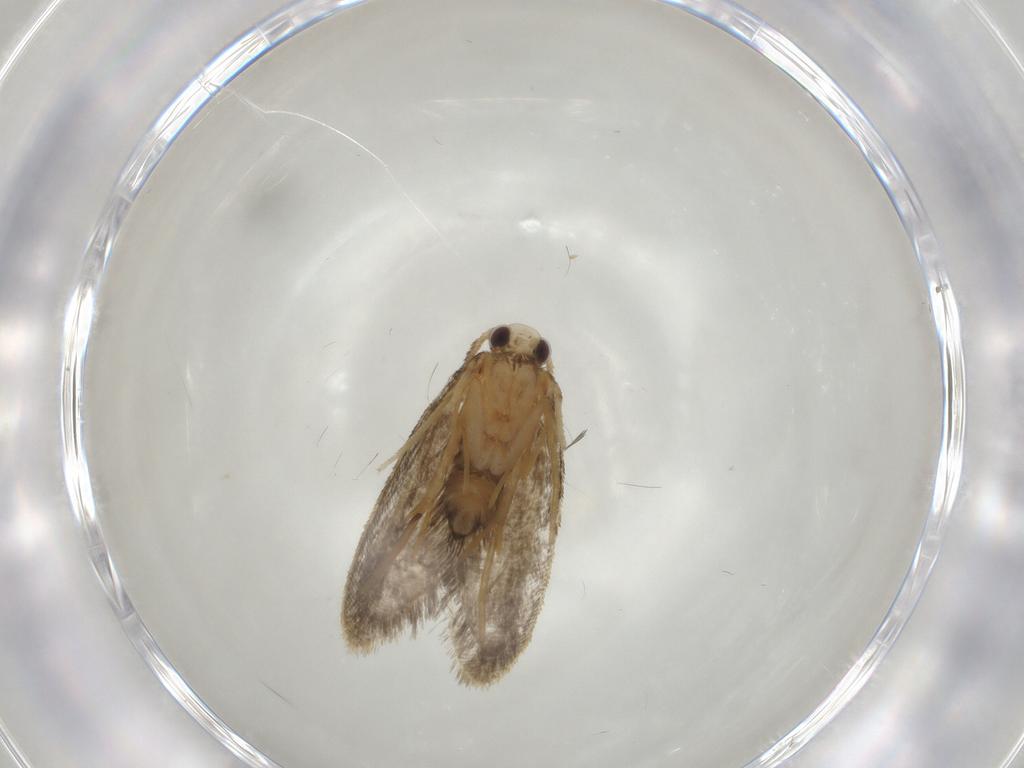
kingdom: Animalia
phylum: Arthropoda
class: Insecta
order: Lepidoptera
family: Psychidae
